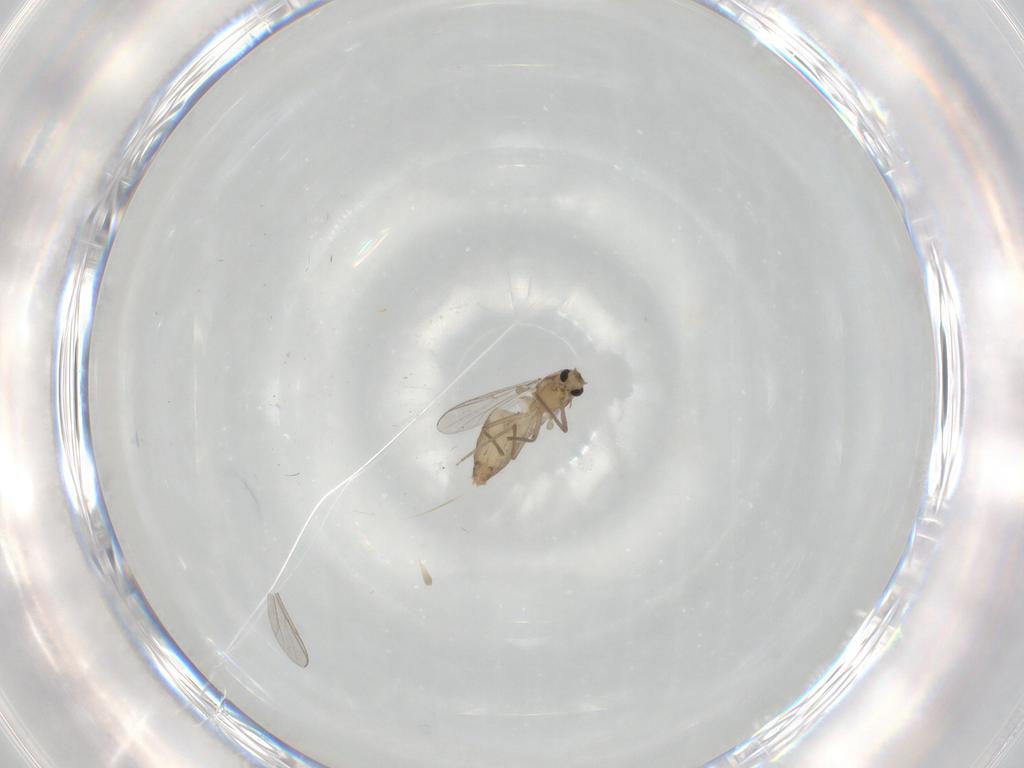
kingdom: Animalia
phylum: Arthropoda
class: Insecta
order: Diptera
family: Chironomidae
